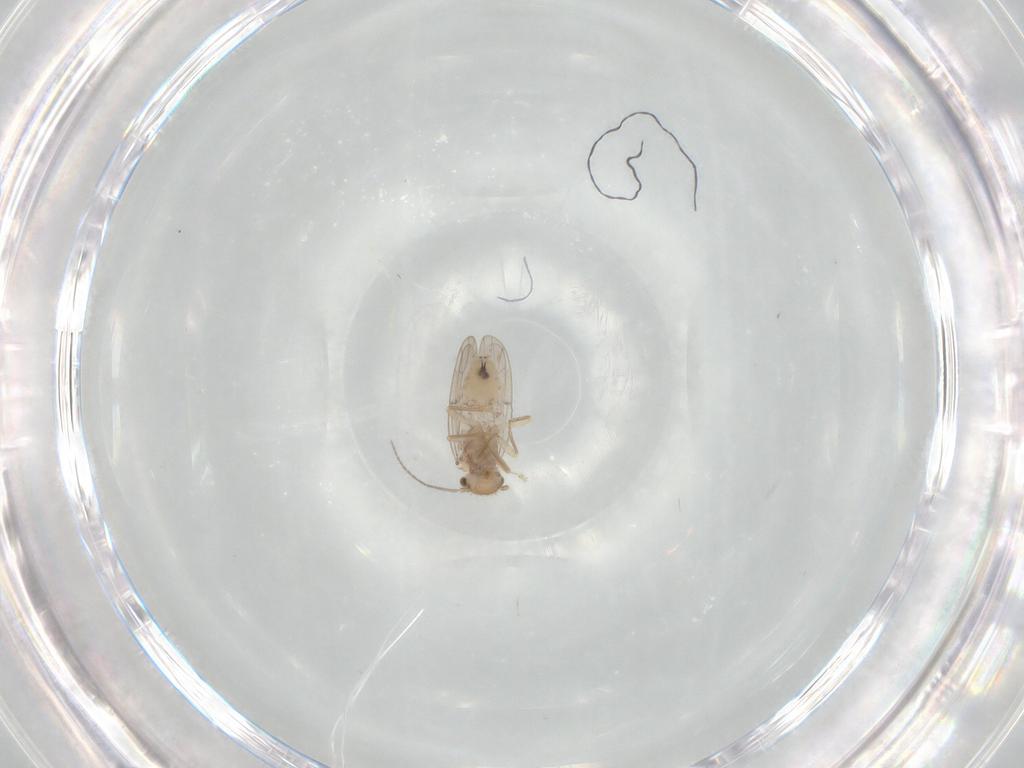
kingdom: Animalia
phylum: Arthropoda
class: Insecta
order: Psocodea
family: Ectopsocidae
